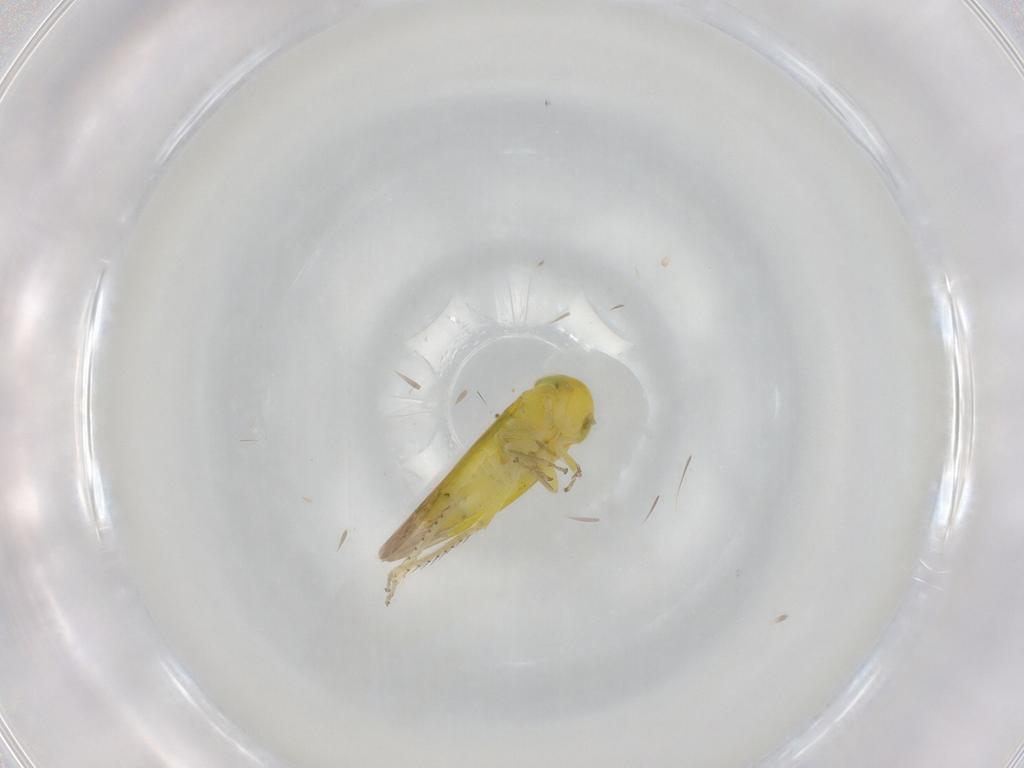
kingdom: Animalia
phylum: Arthropoda
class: Insecta
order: Hemiptera
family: Cicadellidae
